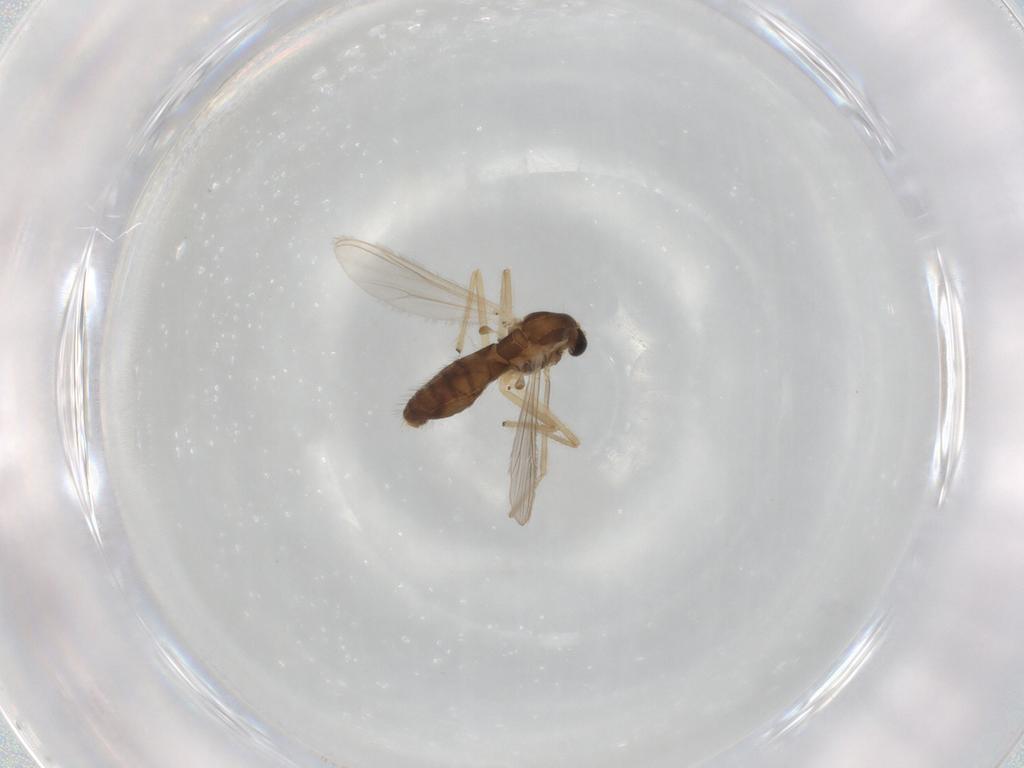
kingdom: Animalia
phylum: Arthropoda
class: Insecta
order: Diptera
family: Chironomidae
